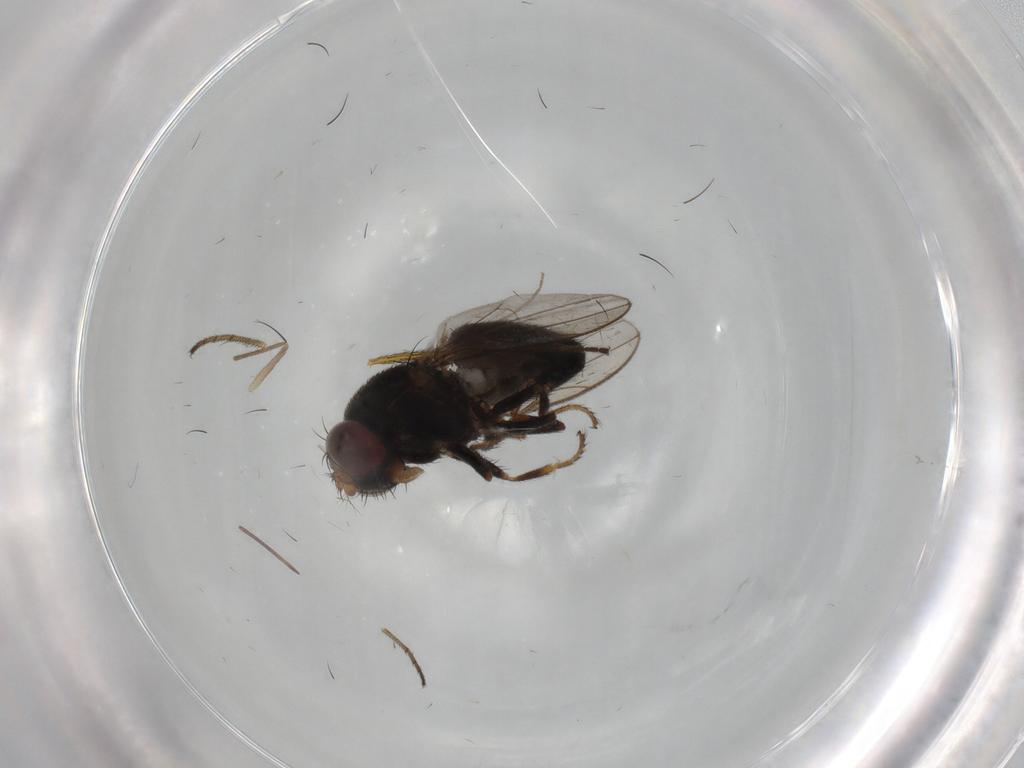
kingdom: Animalia
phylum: Arthropoda
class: Insecta
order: Diptera
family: Dolichopodidae
